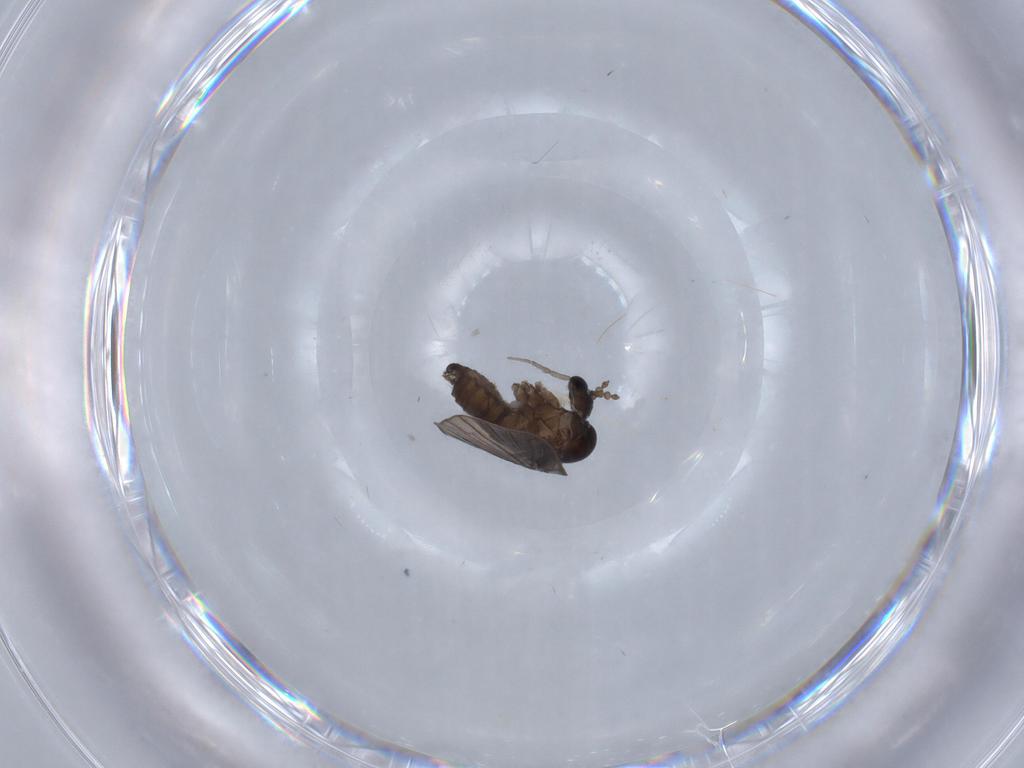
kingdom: Animalia
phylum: Arthropoda
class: Insecta
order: Diptera
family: Psychodidae
